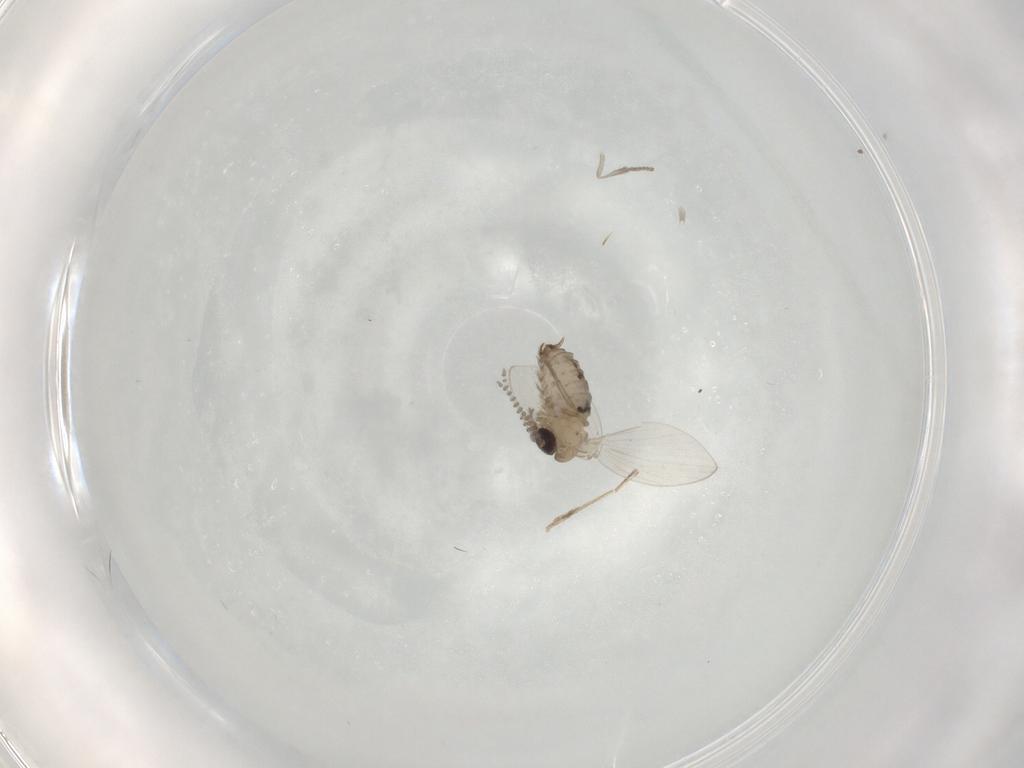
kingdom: Animalia
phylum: Arthropoda
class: Insecta
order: Diptera
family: Psychodidae
